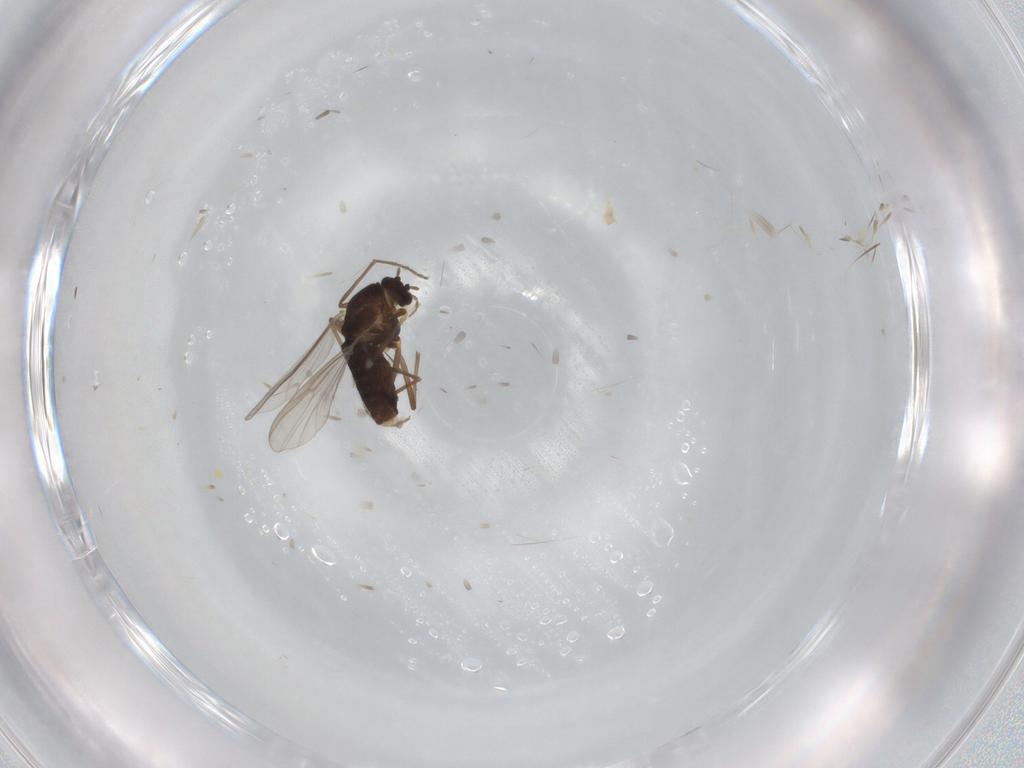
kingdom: Animalia
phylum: Arthropoda
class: Insecta
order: Diptera
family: Chironomidae
